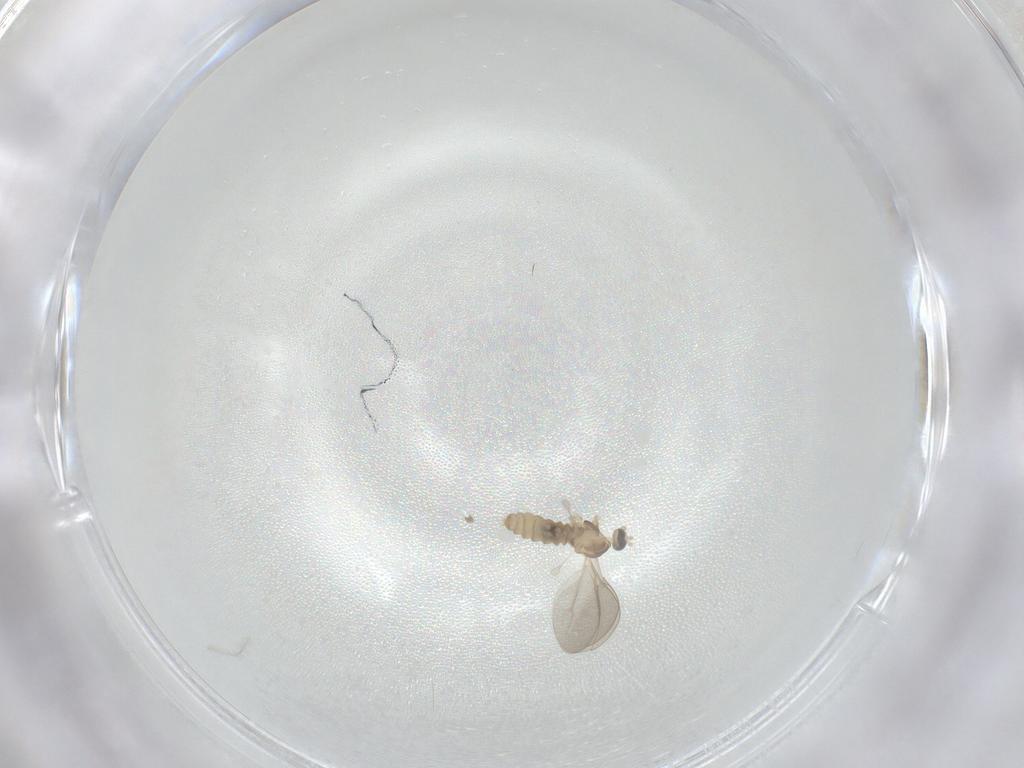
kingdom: Animalia
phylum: Arthropoda
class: Insecta
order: Diptera
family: Cecidomyiidae
